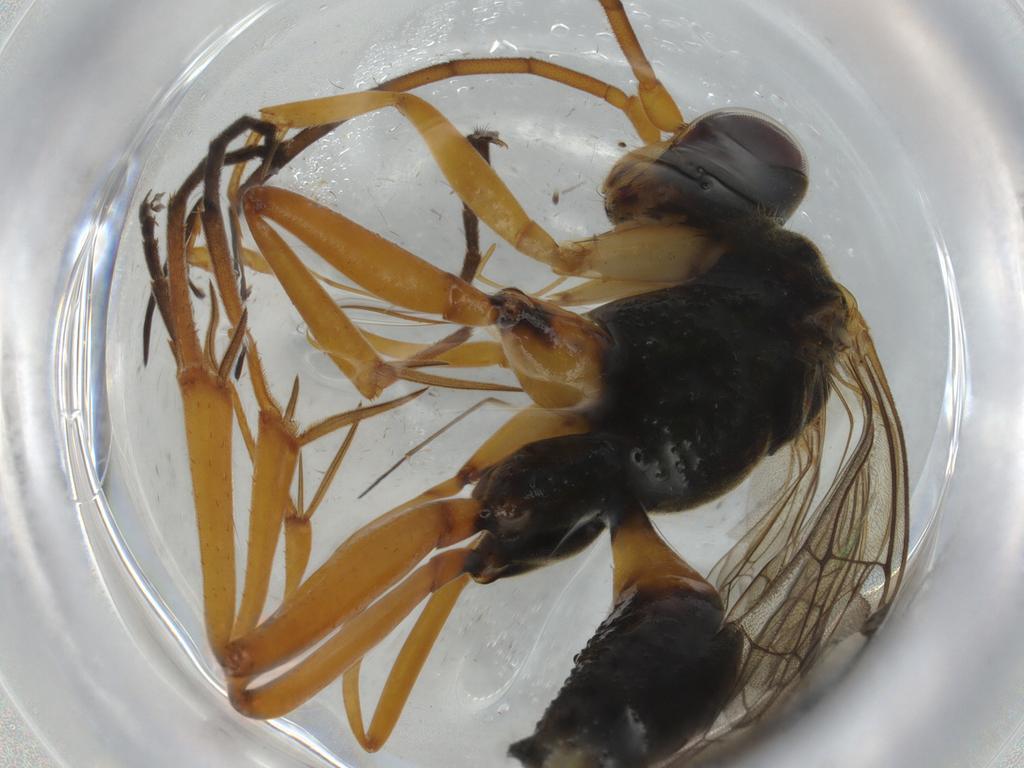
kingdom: Animalia
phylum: Arthropoda
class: Insecta
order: Hymenoptera
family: Pompilidae
